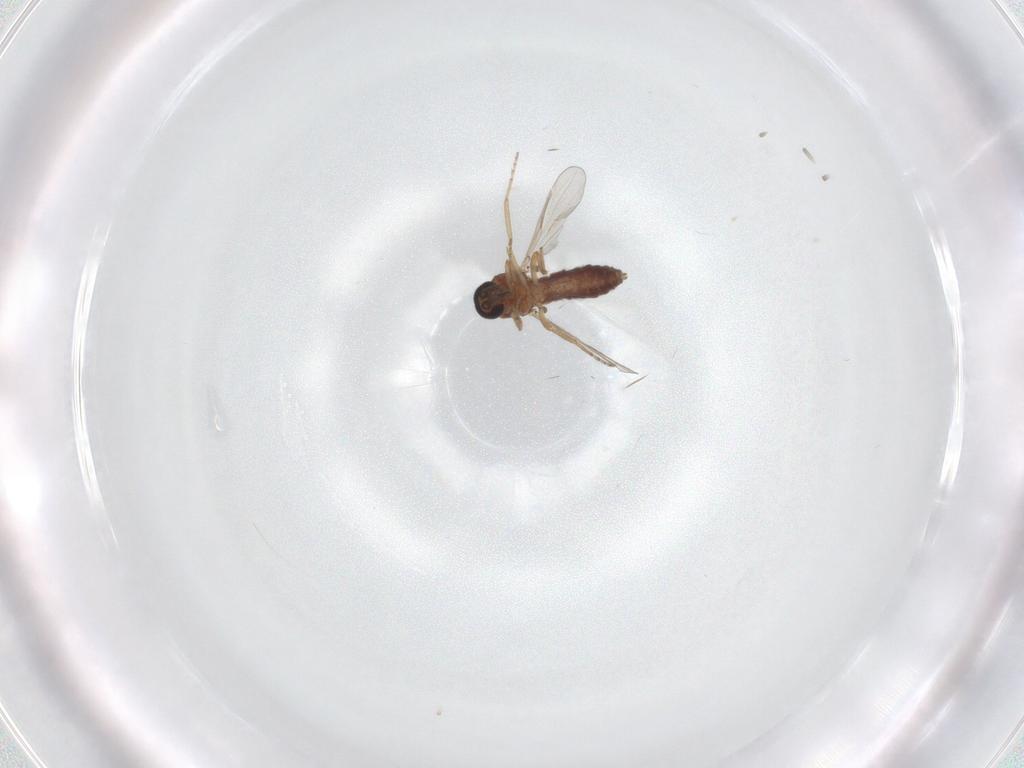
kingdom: Animalia
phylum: Arthropoda
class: Insecta
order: Diptera
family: Ceratopogonidae
